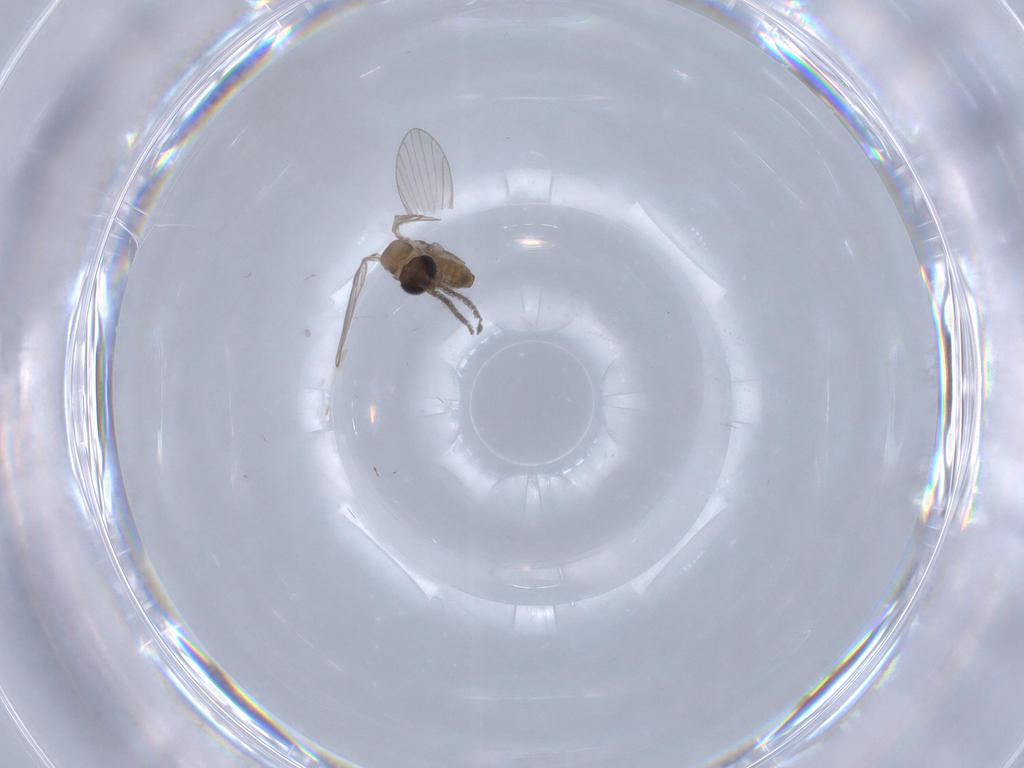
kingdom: Animalia
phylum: Arthropoda
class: Insecta
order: Diptera
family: Psychodidae
